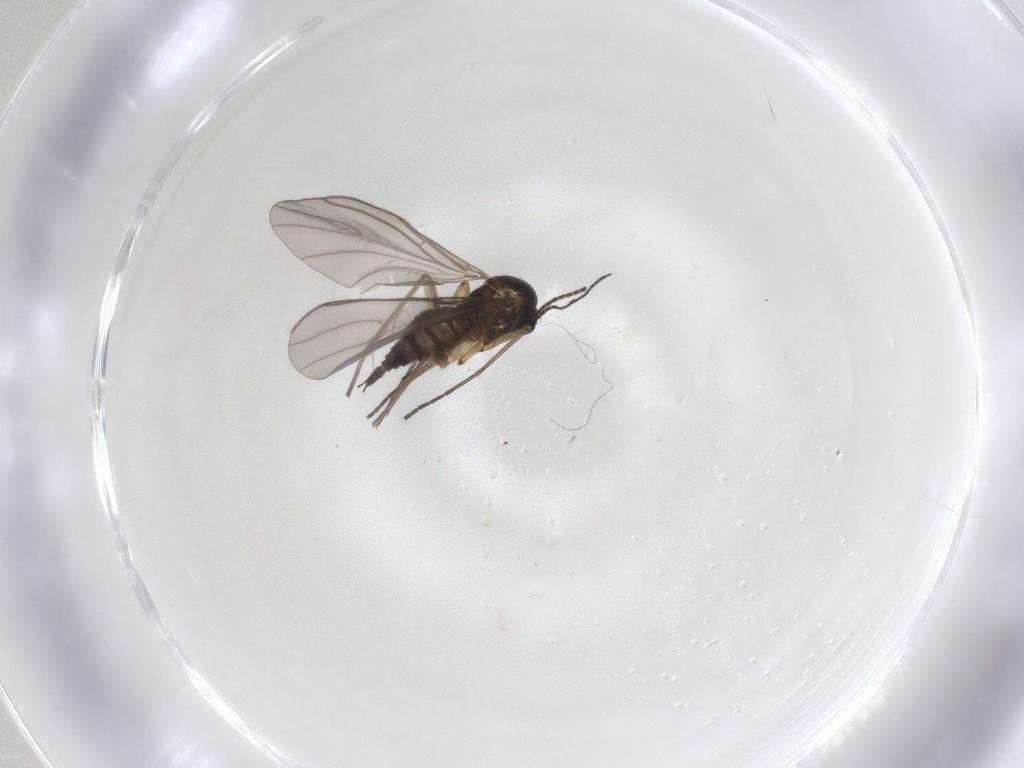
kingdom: Animalia
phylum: Arthropoda
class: Insecta
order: Diptera
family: Sciaridae
